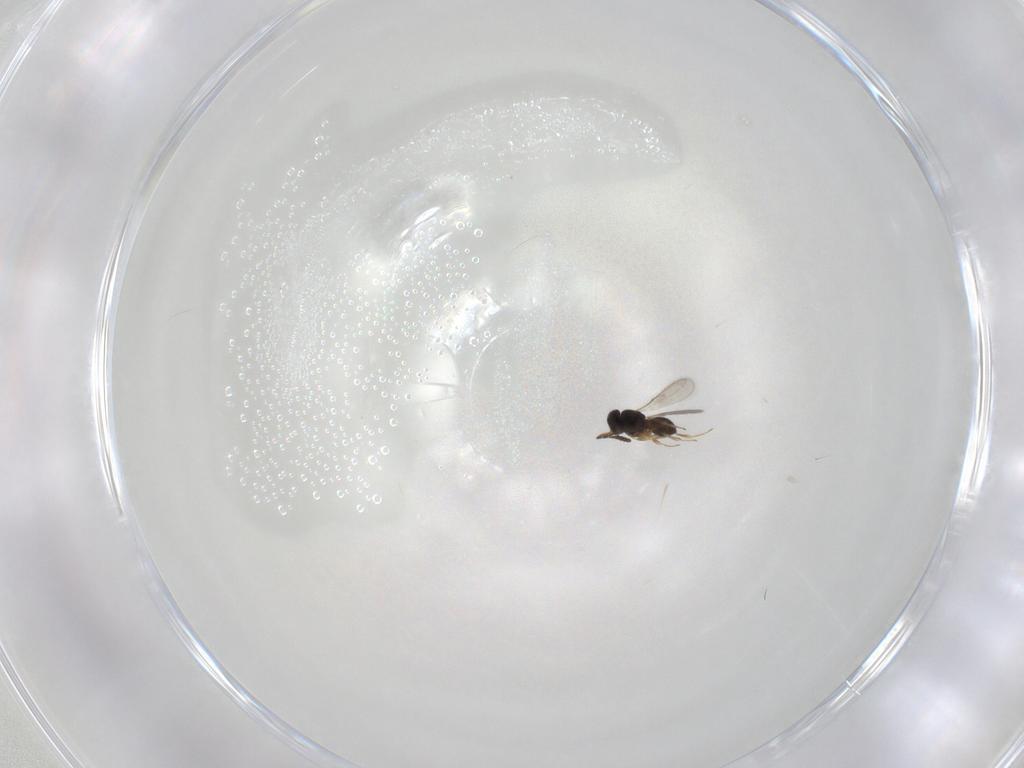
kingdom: Animalia
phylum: Arthropoda
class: Insecta
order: Hymenoptera
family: Scelionidae
